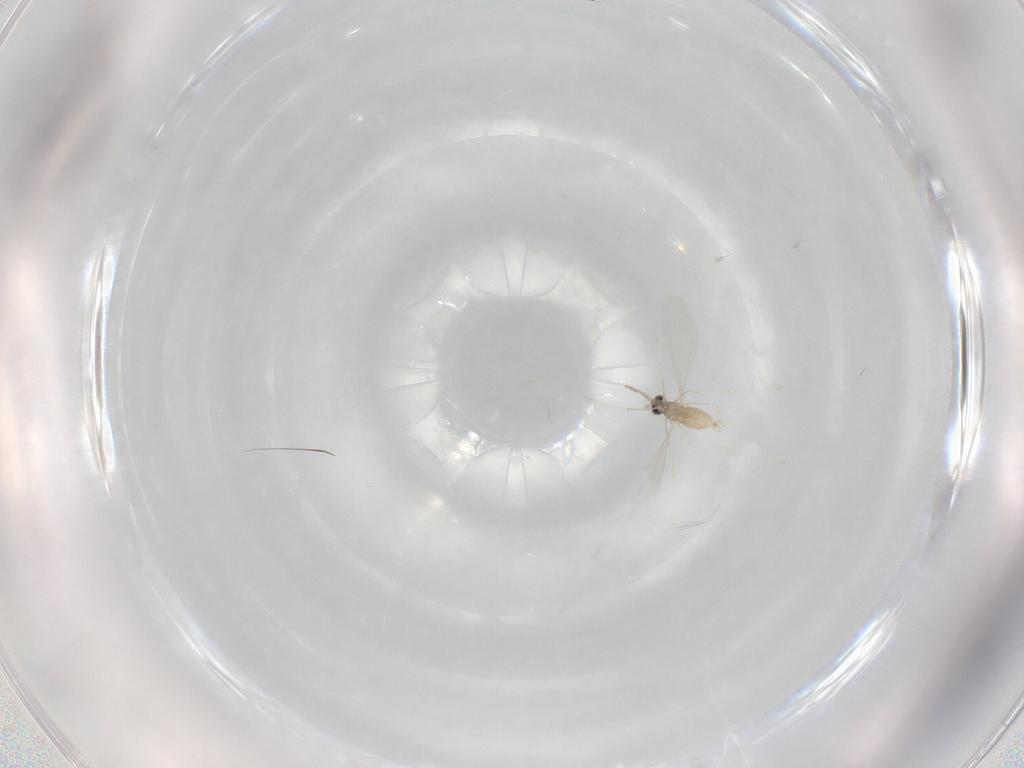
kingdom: Animalia
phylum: Arthropoda
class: Insecta
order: Diptera
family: Cecidomyiidae
